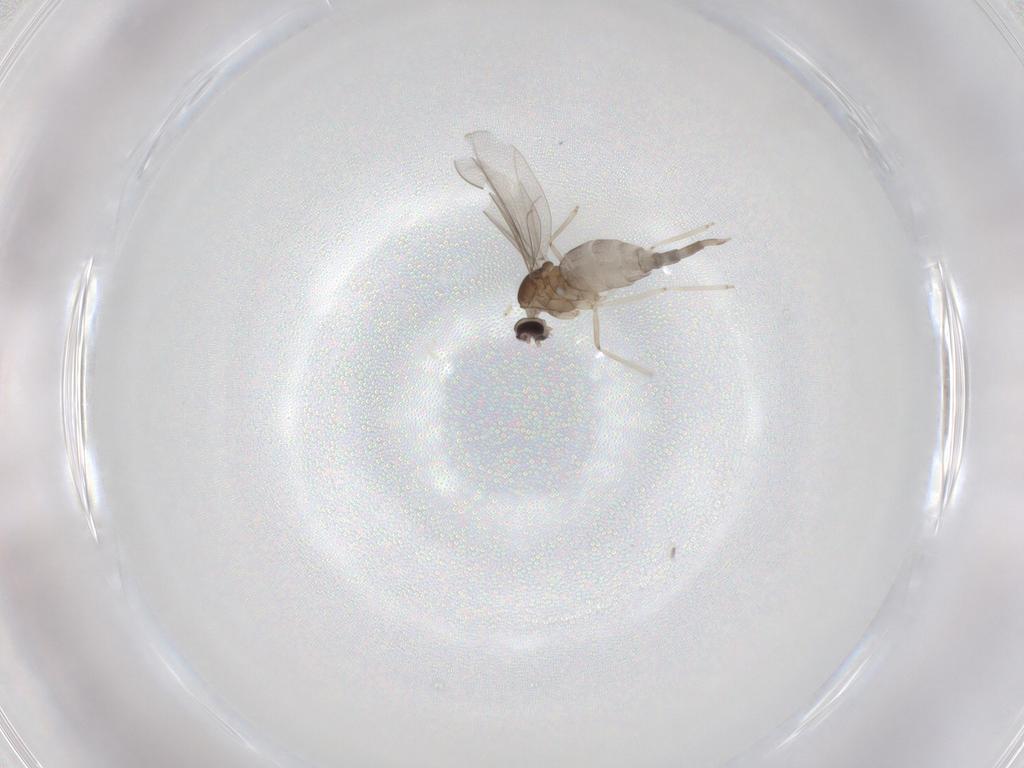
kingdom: Animalia
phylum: Arthropoda
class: Insecta
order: Diptera
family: Cecidomyiidae
